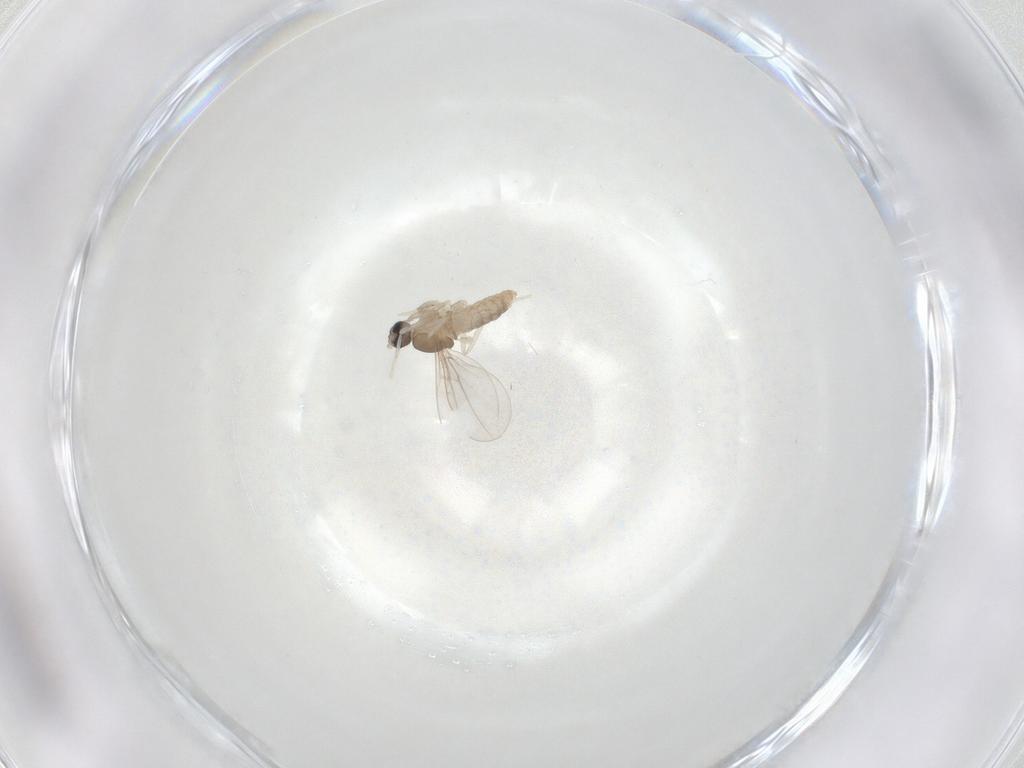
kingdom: Animalia
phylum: Arthropoda
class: Insecta
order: Diptera
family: Cecidomyiidae
